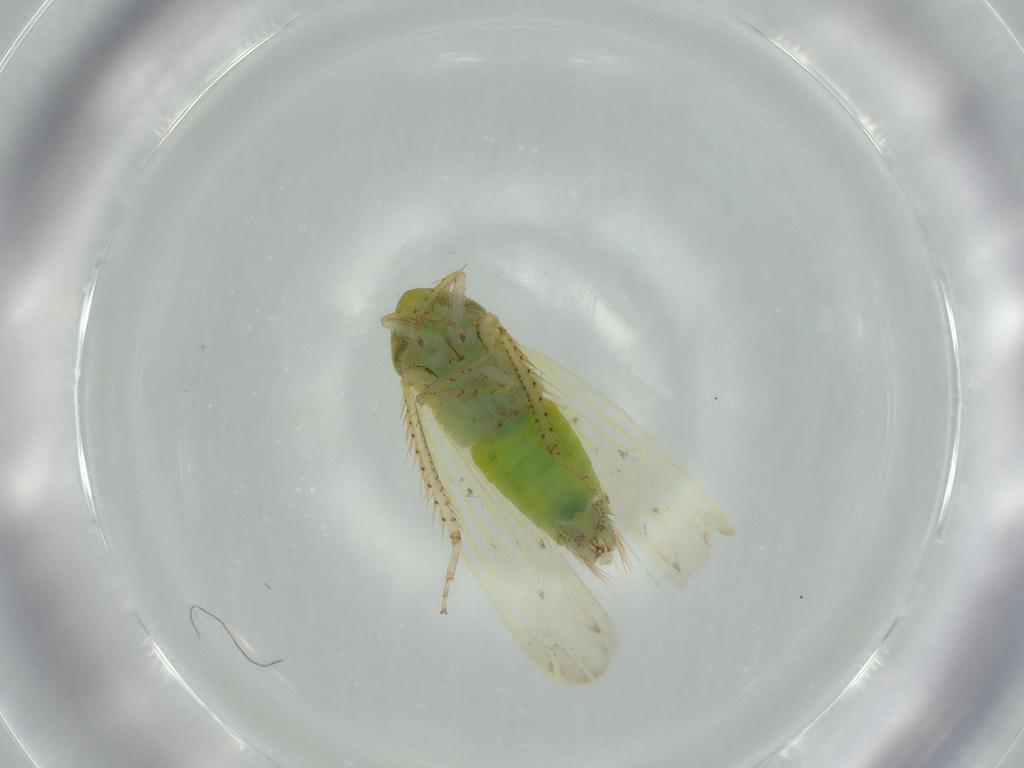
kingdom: Animalia
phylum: Arthropoda
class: Insecta
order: Hemiptera
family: Cicadellidae
